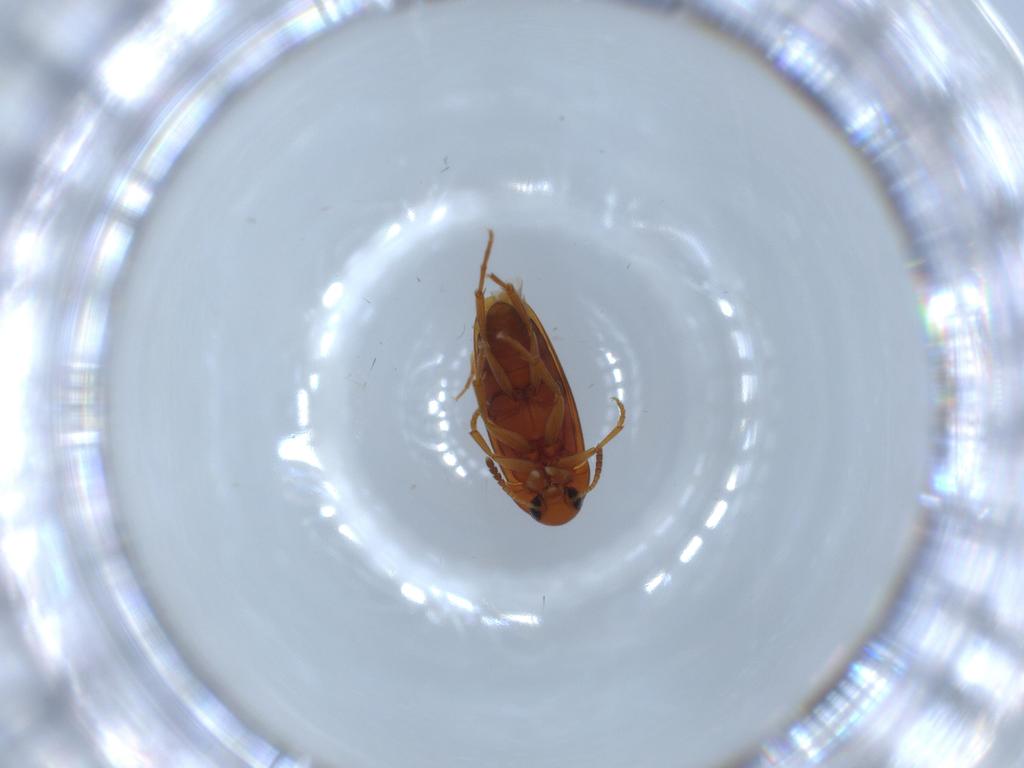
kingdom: Animalia
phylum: Arthropoda
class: Insecta
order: Coleoptera
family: Scraptiidae
